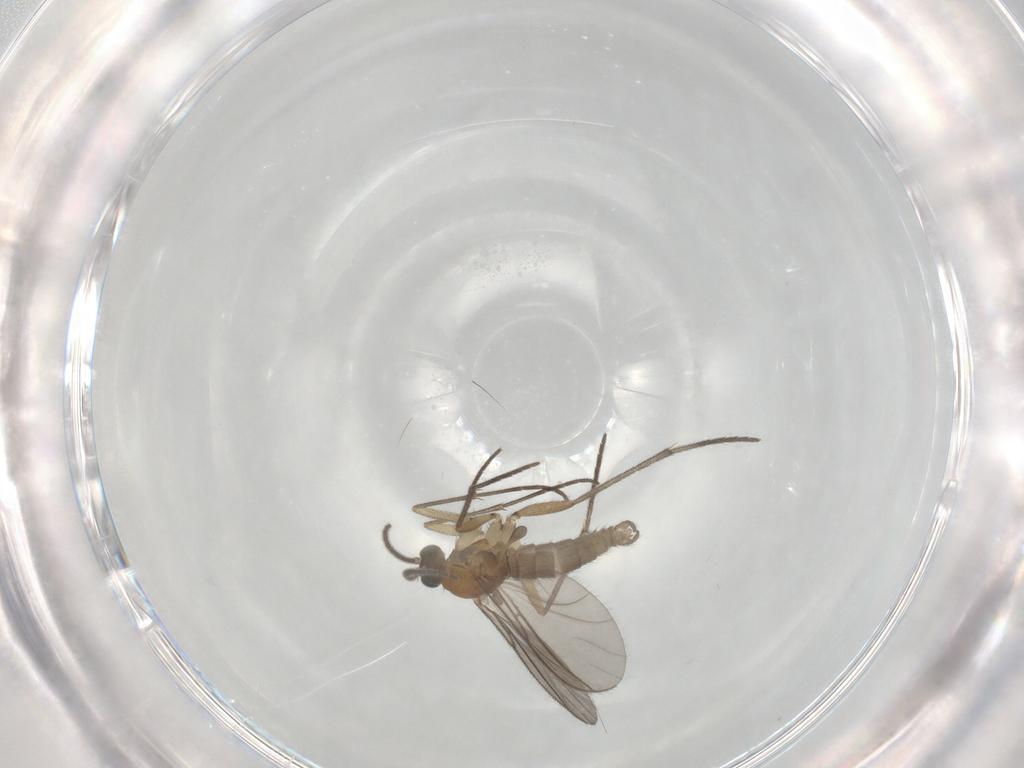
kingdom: Animalia
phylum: Arthropoda
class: Insecta
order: Diptera
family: Sciaridae
